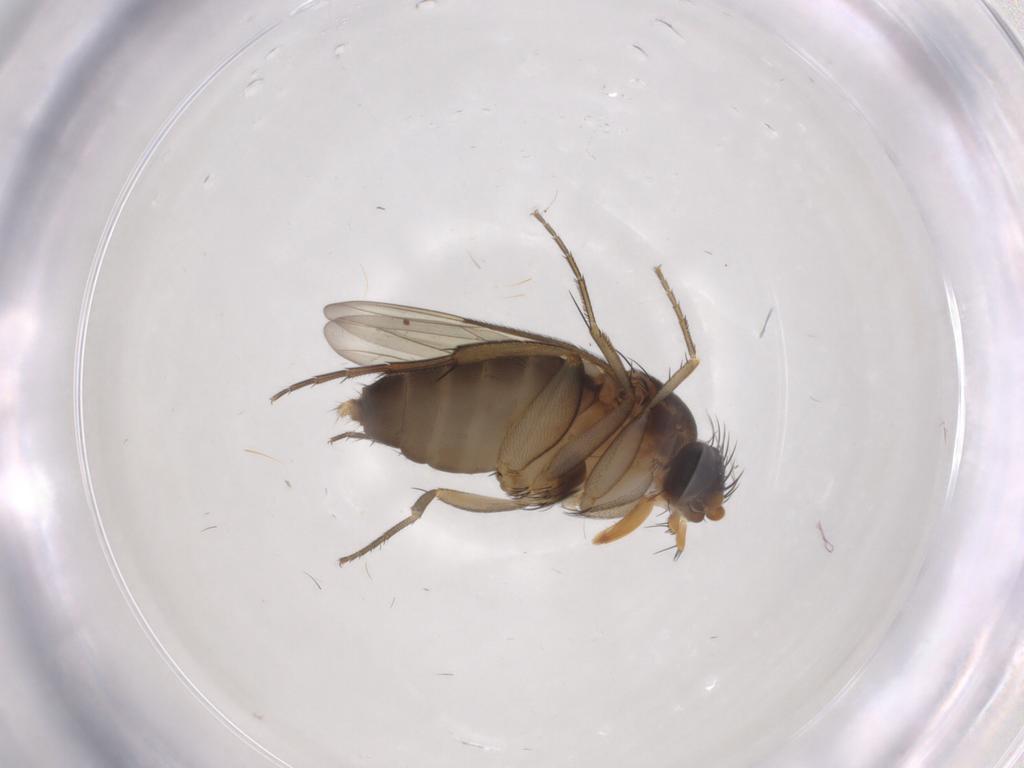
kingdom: Animalia
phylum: Arthropoda
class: Insecta
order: Diptera
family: Phoridae
